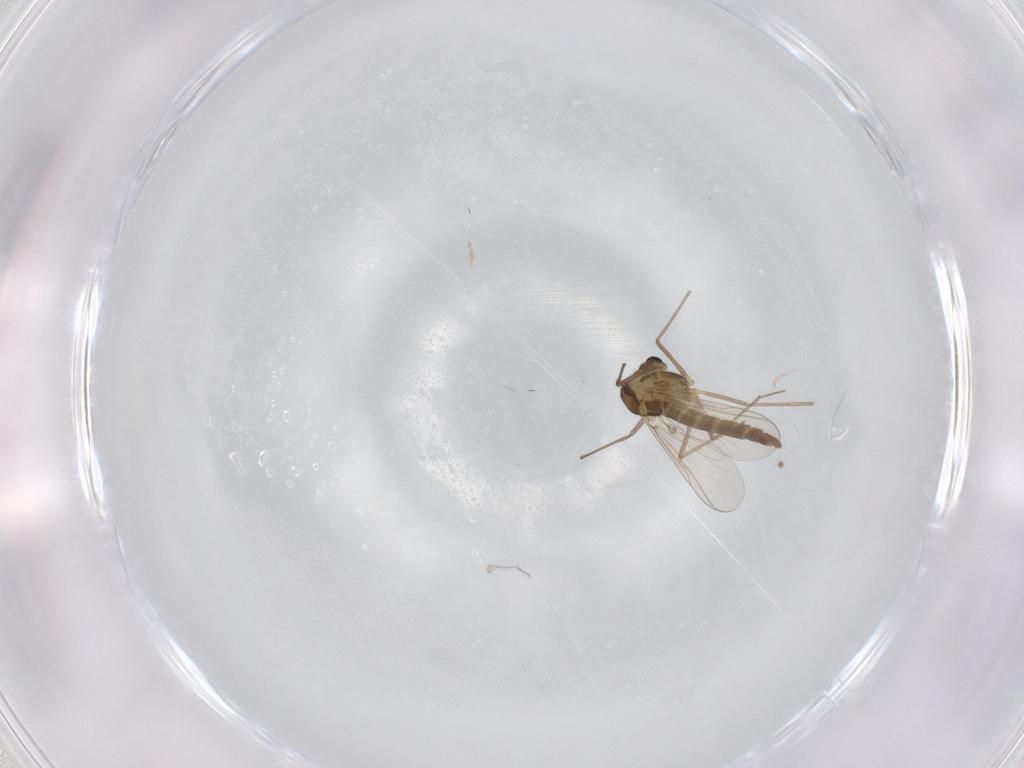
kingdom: Animalia
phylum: Arthropoda
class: Insecta
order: Diptera
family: Chironomidae
